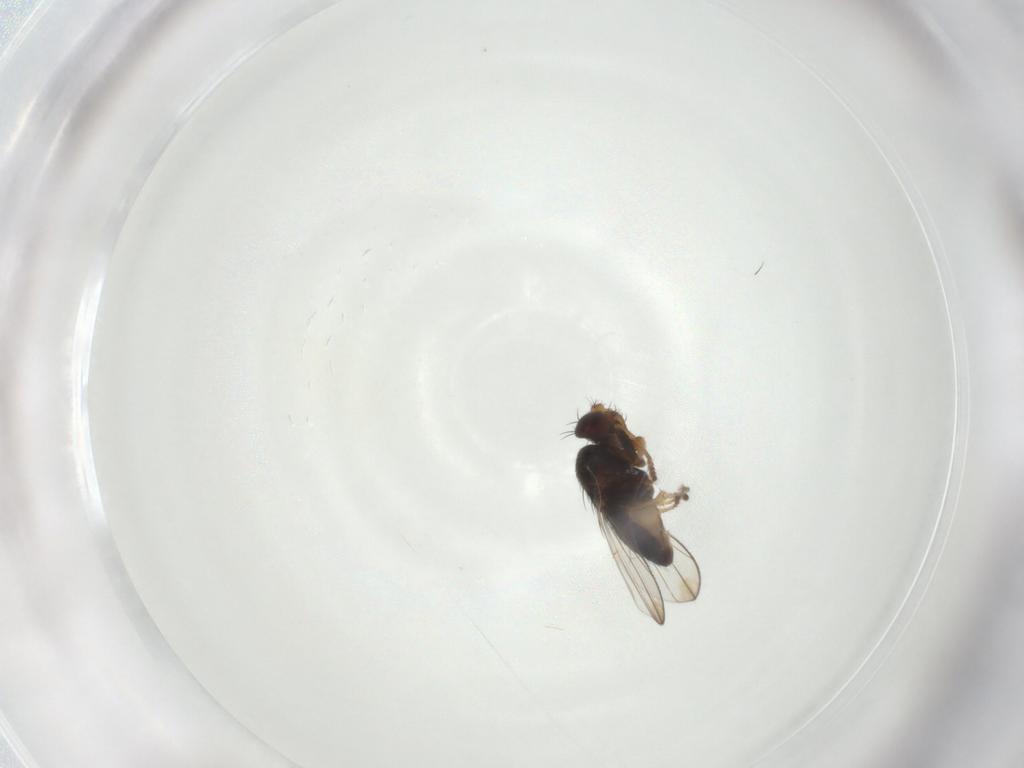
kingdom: Animalia
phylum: Arthropoda
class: Insecta
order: Diptera
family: Ephydridae
